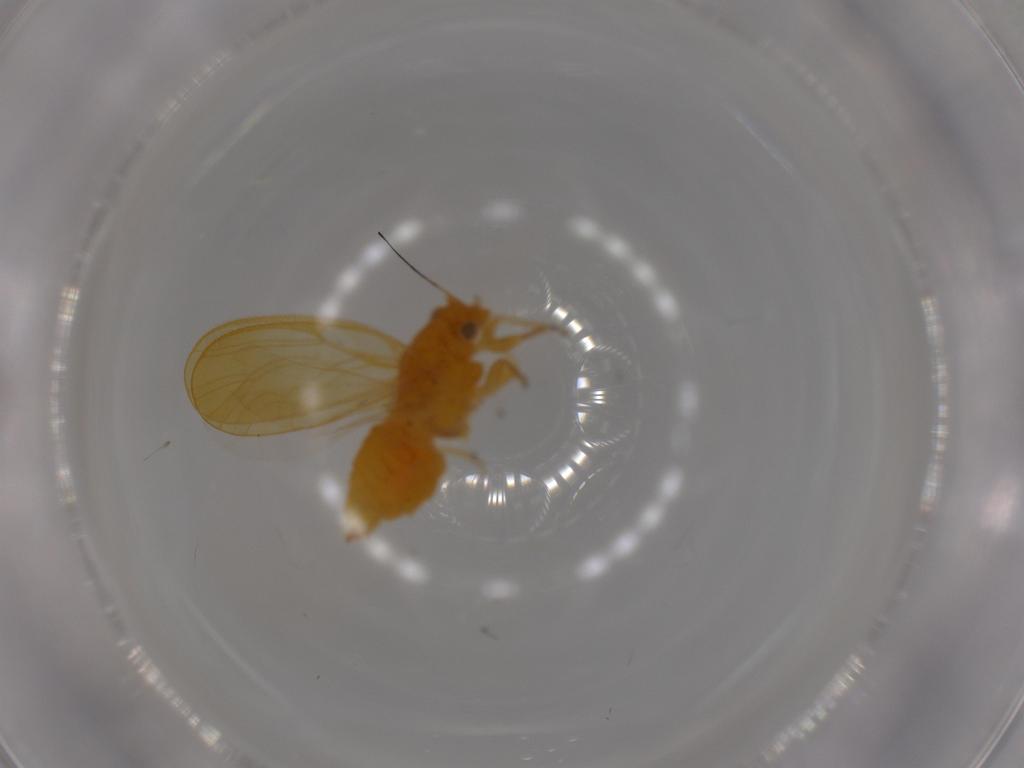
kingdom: Animalia
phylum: Arthropoda
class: Insecta
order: Hemiptera
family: Psyllidae
